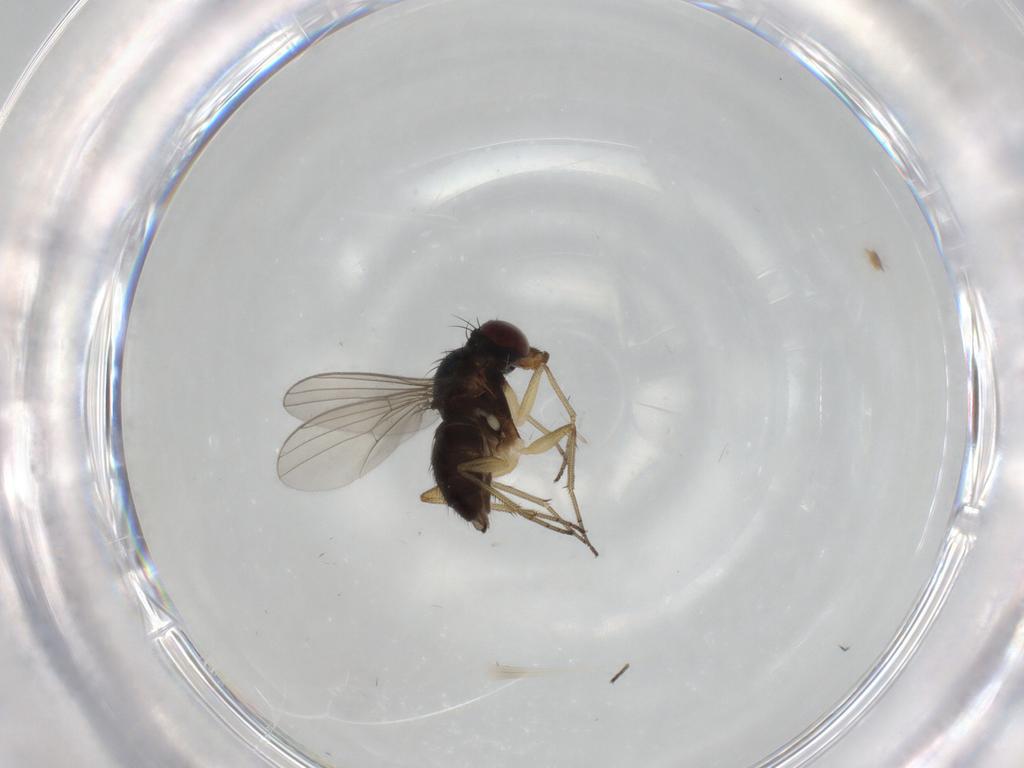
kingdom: Animalia
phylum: Arthropoda
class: Insecta
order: Diptera
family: Dolichopodidae
